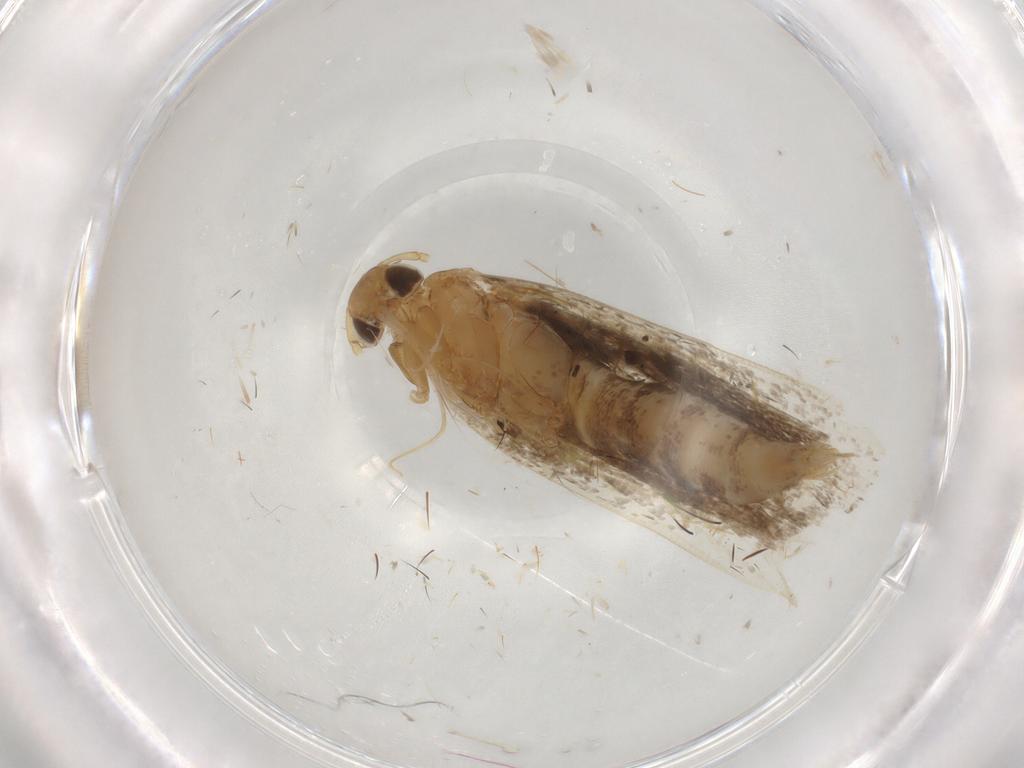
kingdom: Animalia
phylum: Arthropoda
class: Insecta
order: Lepidoptera
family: Gelechiidae
